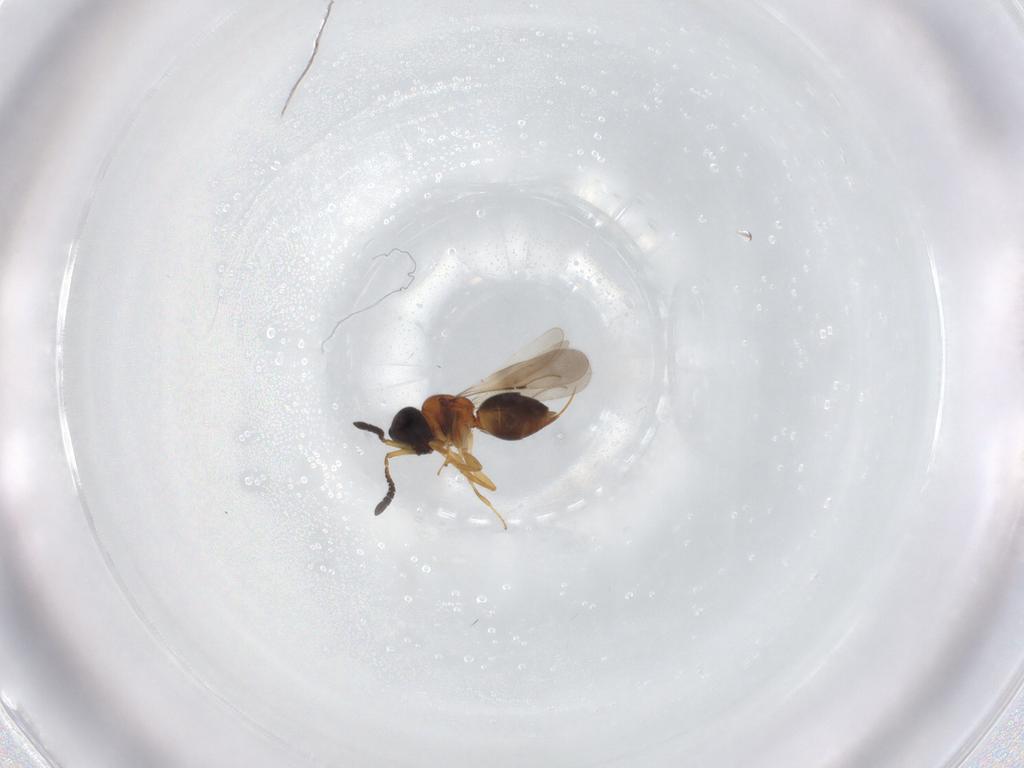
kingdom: Animalia
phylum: Arthropoda
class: Insecta
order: Hymenoptera
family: Ceraphronidae
